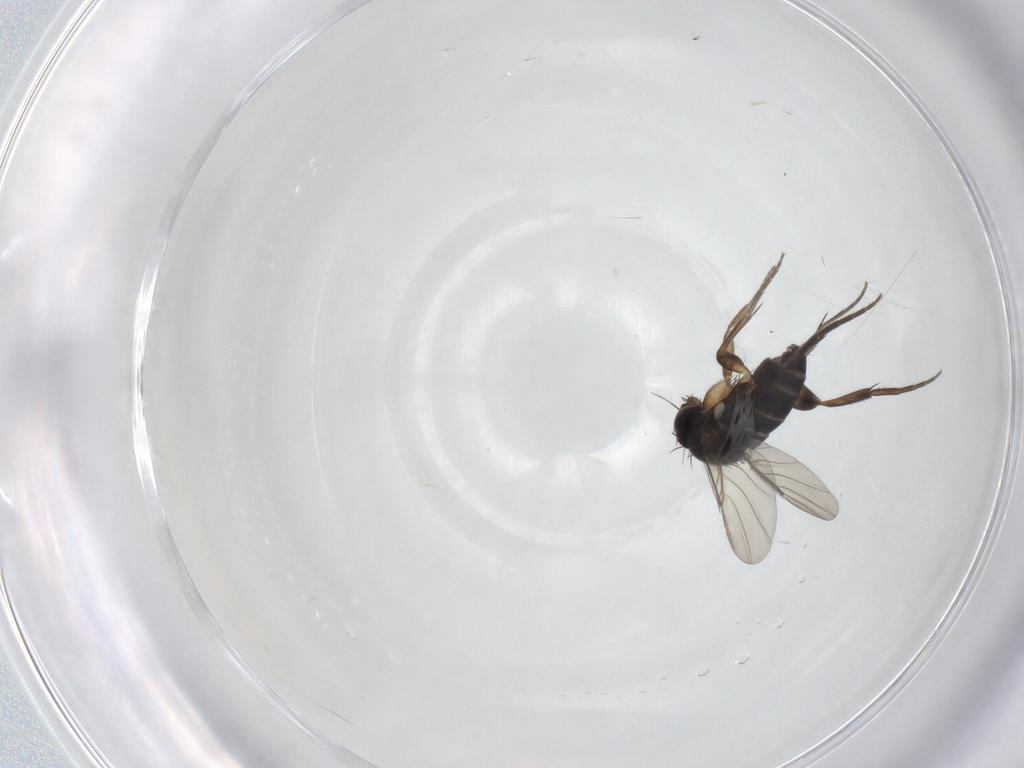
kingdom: Animalia
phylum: Arthropoda
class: Insecta
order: Diptera
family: Phoridae
